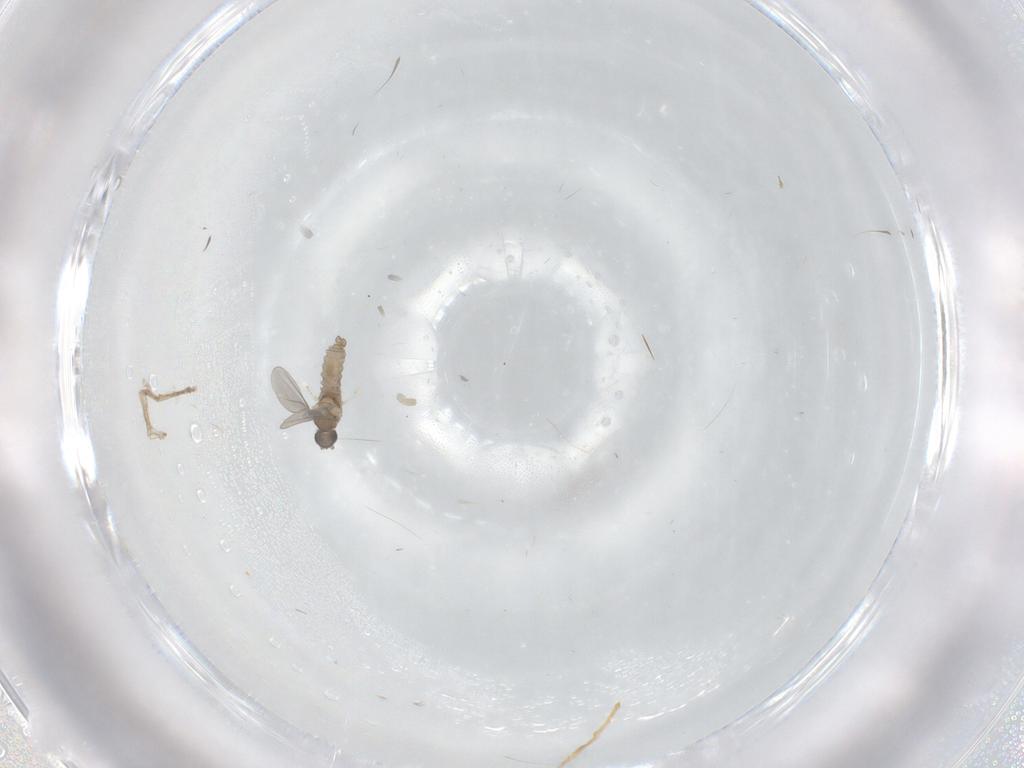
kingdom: Animalia
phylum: Arthropoda
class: Insecta
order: Diptera
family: Chironomidae
